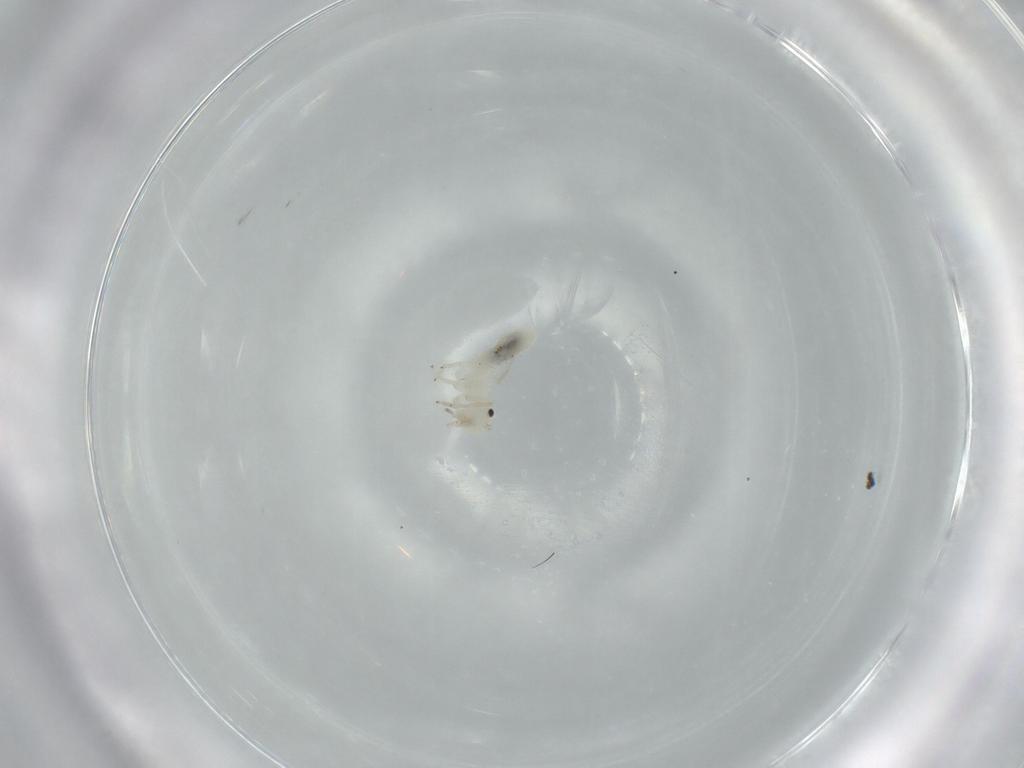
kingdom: Animalia
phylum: Arthropoda
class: Insecta
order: Psocodea
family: Caeciliusidae
